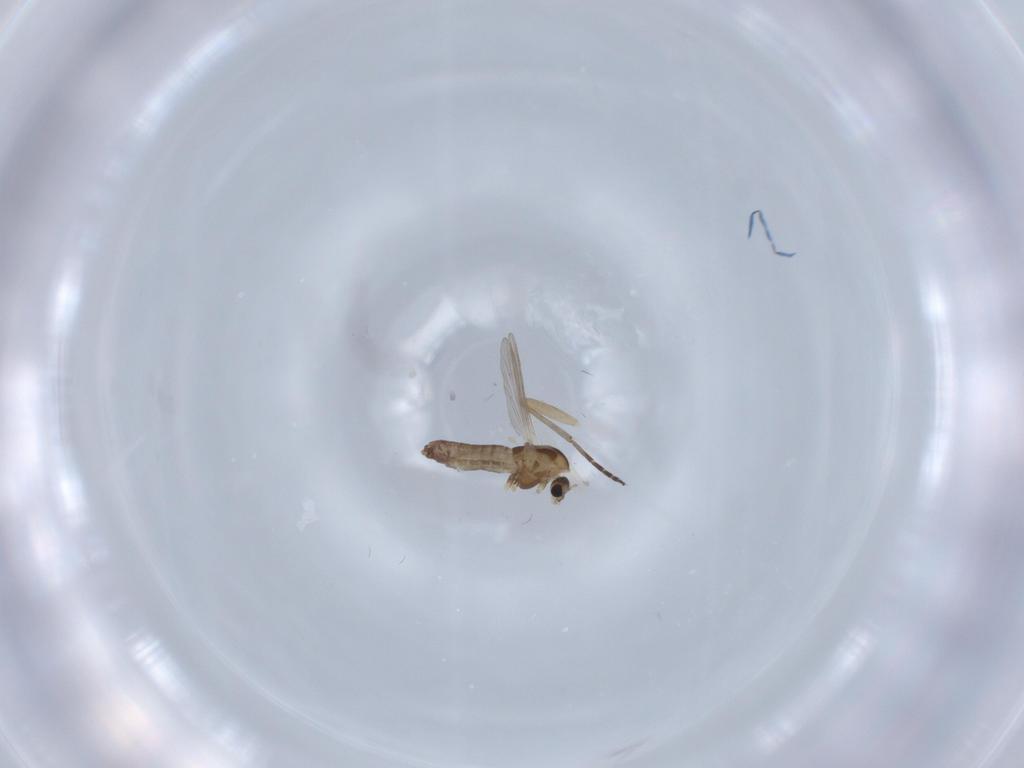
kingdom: Animalia
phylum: Arthropoda
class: Insecta
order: Diptera
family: Chironomidae
